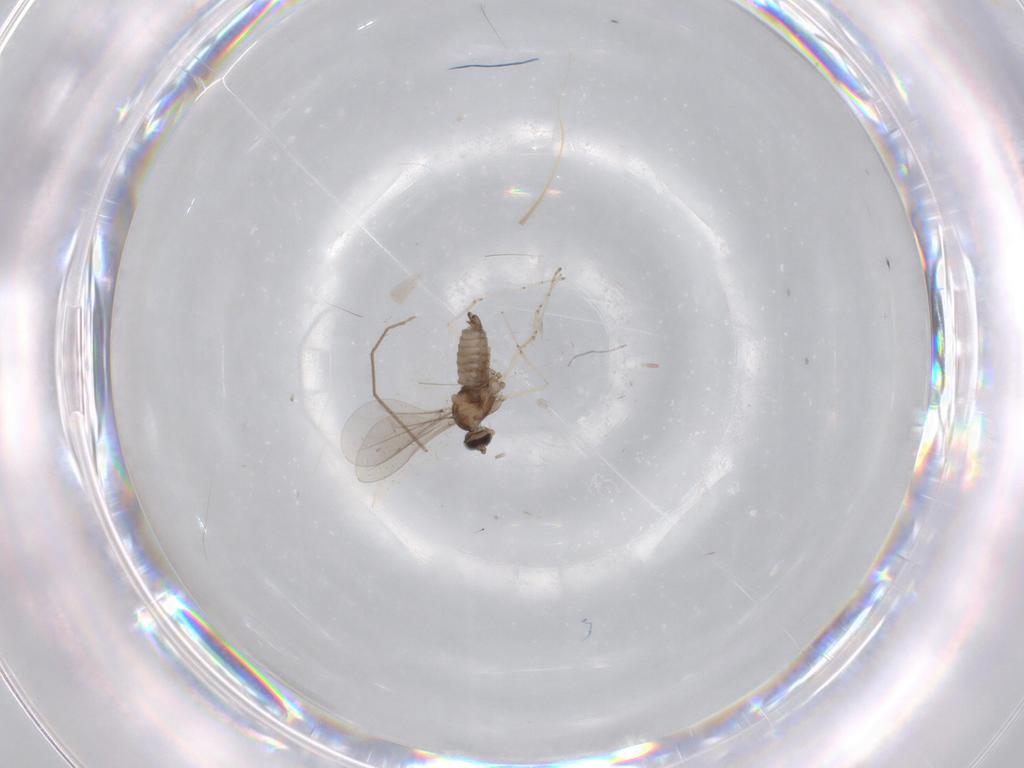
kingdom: Animalia
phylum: Arthropoda
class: Insecta
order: Diptera
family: Cecidomyiidae
